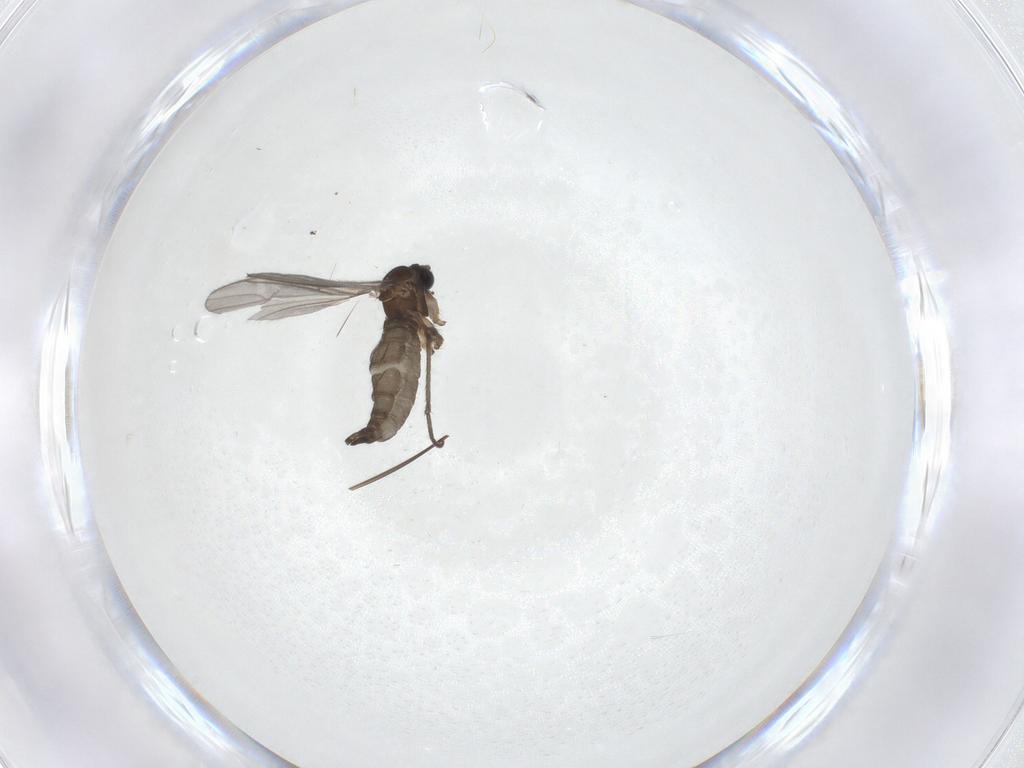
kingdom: Animalia
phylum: Arthropoda
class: Insecta
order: Diptera
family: Sciaridae
